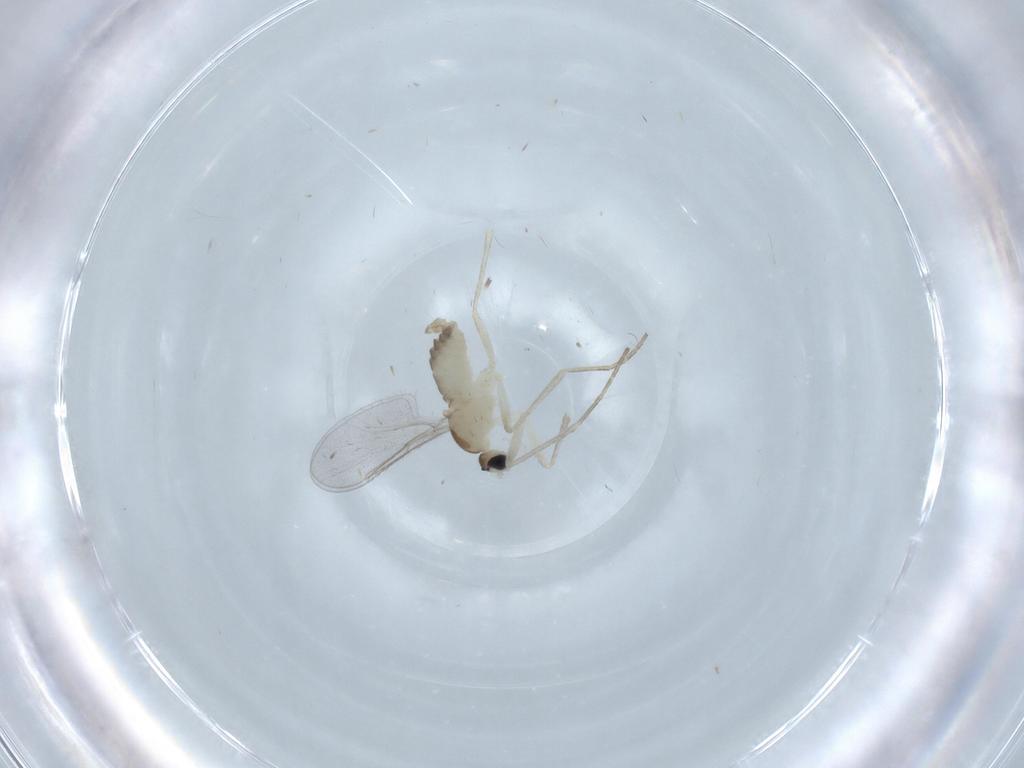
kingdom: Animalia
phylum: Arthropoda
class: Insecta
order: Diptera
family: Cecidomyiidae
